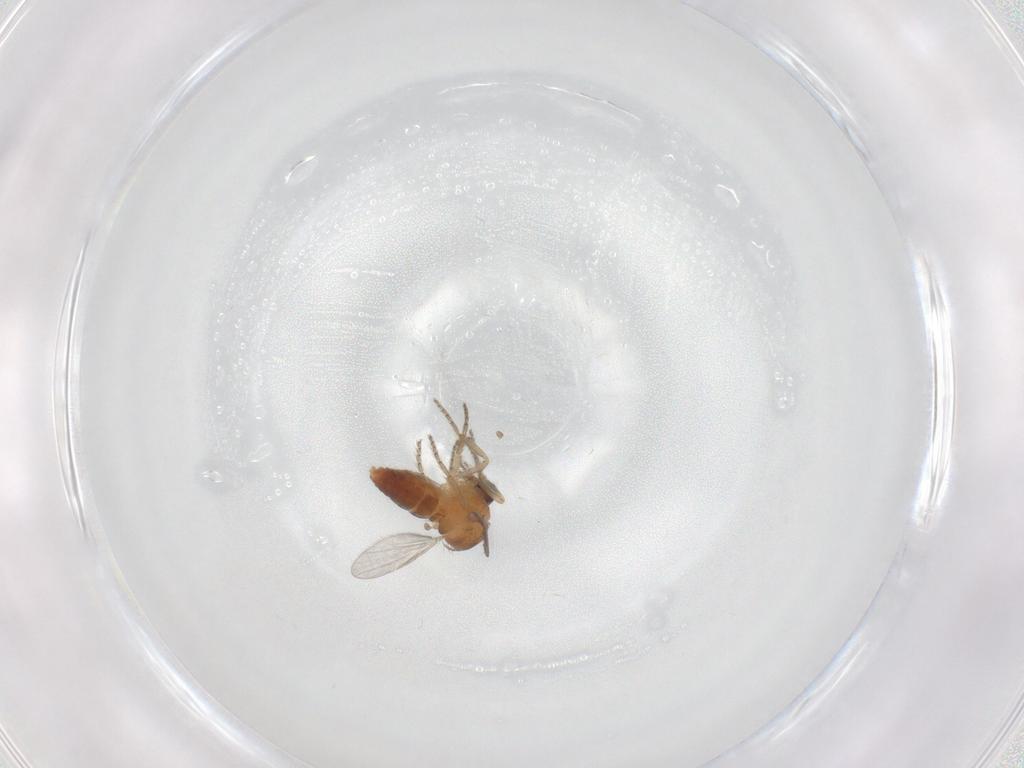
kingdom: Animalia
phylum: Arthropoda
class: Insecta
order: Diptera
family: Ceratopogonidae
